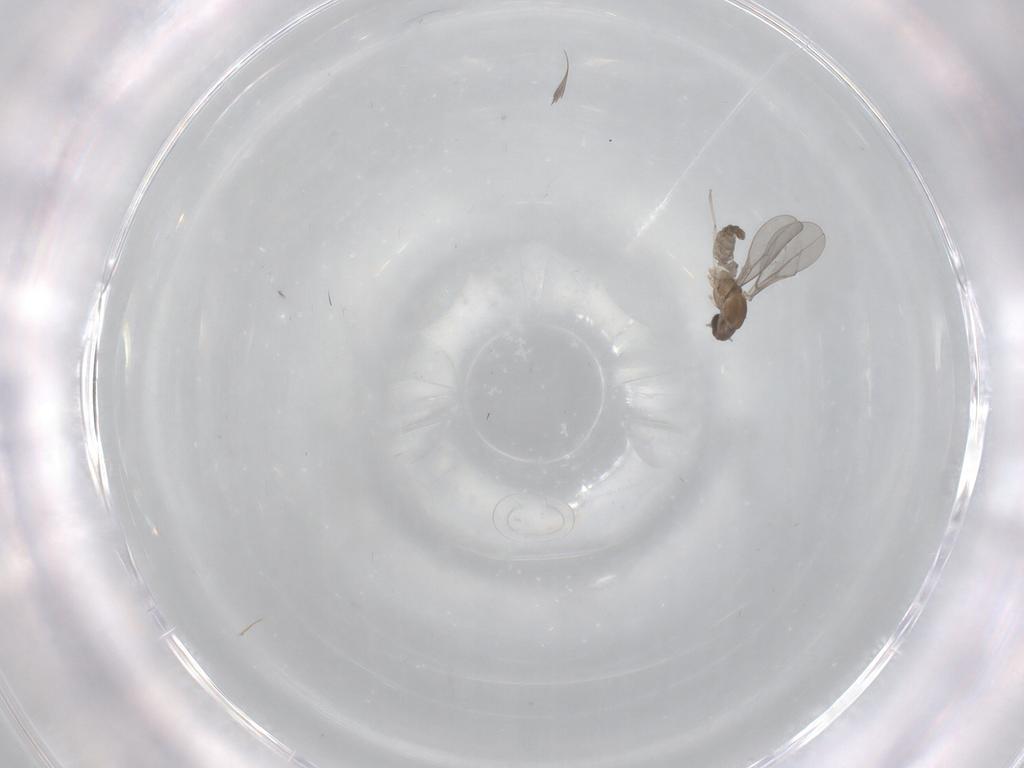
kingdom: Animalia
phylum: Arthropoda
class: Insecta
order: Diptera
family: Cecidomyiidae
